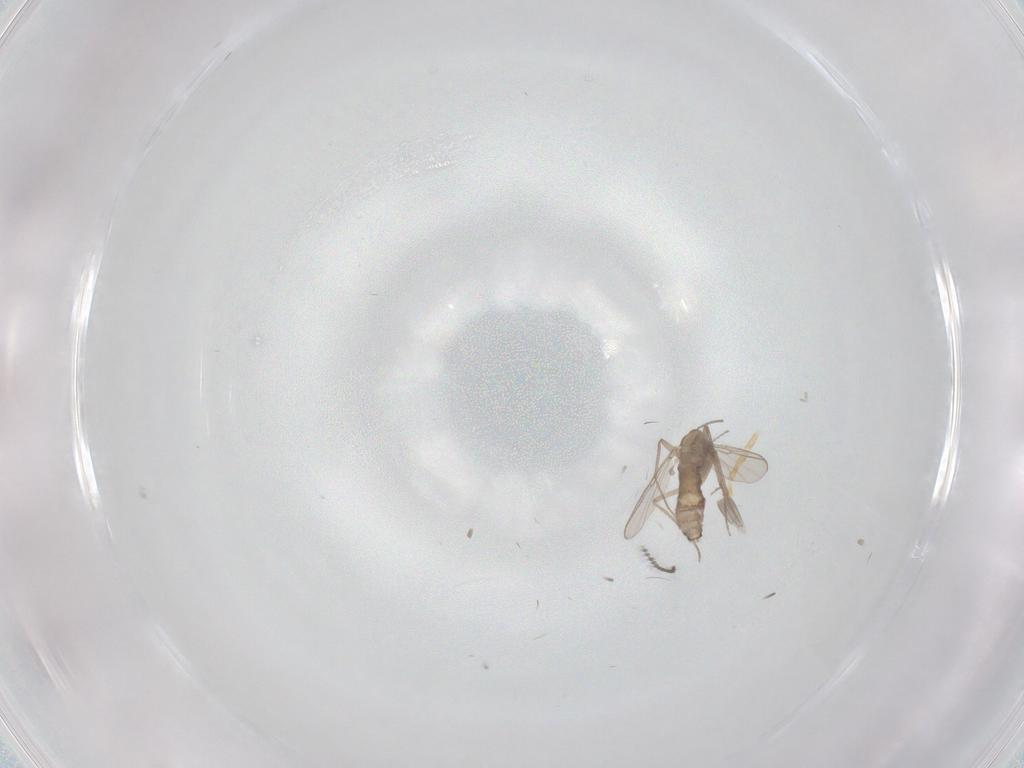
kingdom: Animalia
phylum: Arthropoda
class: Insecta
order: Diptera
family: Chironomidae
